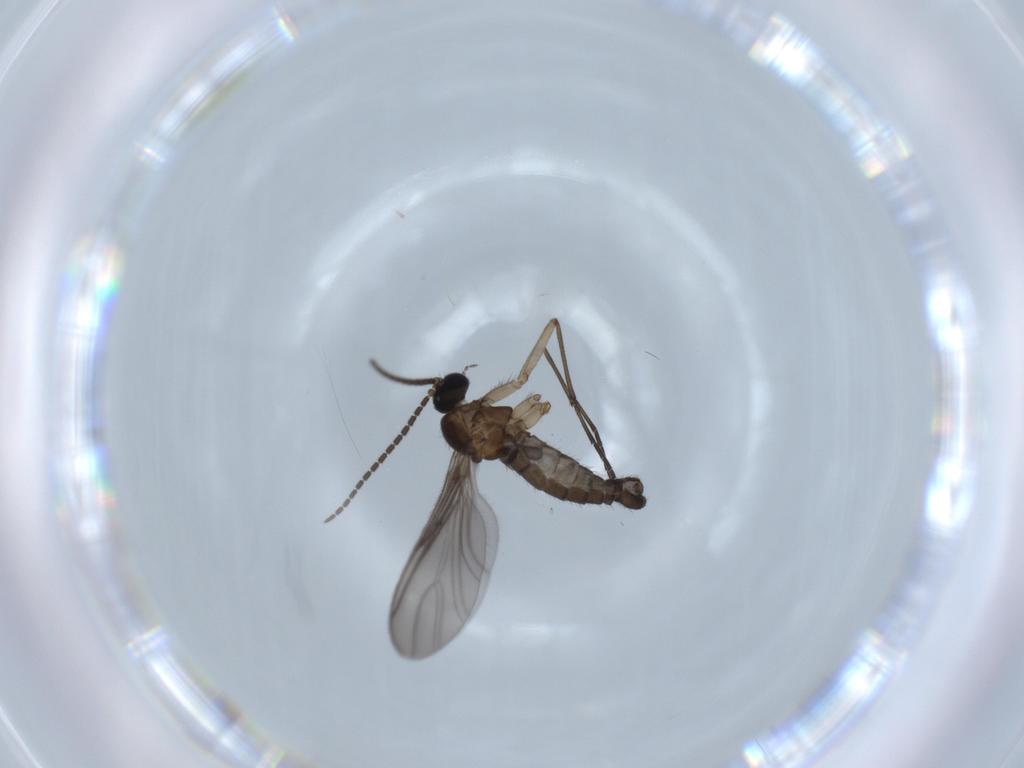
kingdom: Animalia
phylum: Arthropoda
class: Insecta
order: Diptera
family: Sciaridae
